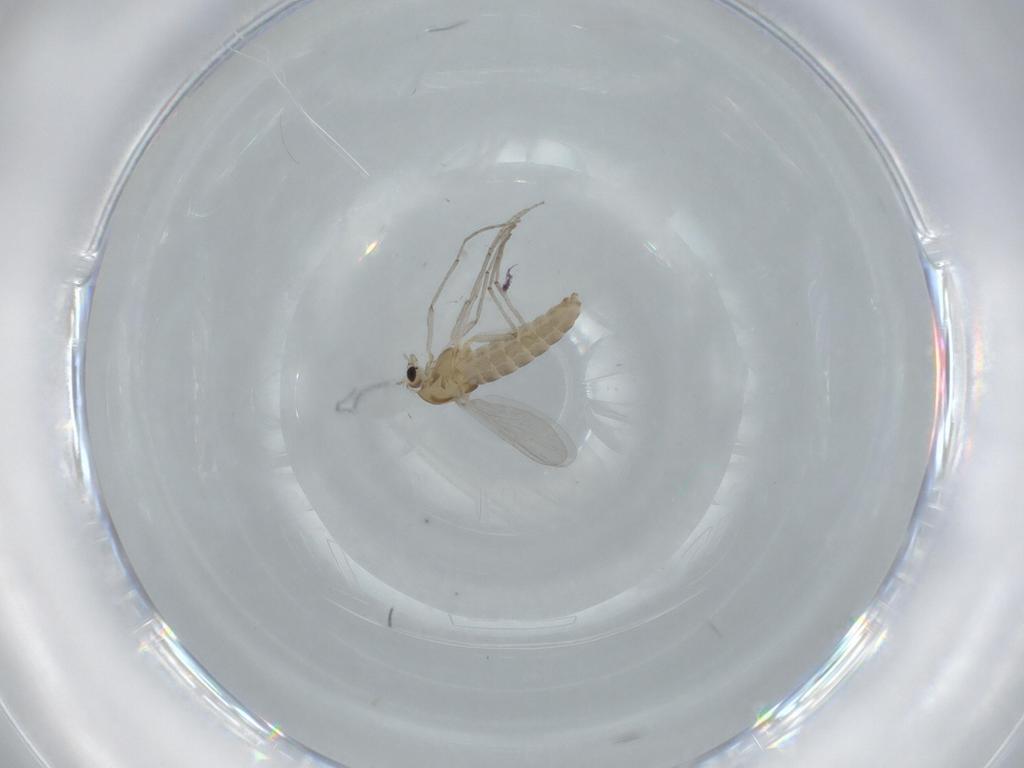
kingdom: Animalia
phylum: Arthropoda
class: Insecta
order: Diptera
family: Chironomidae
